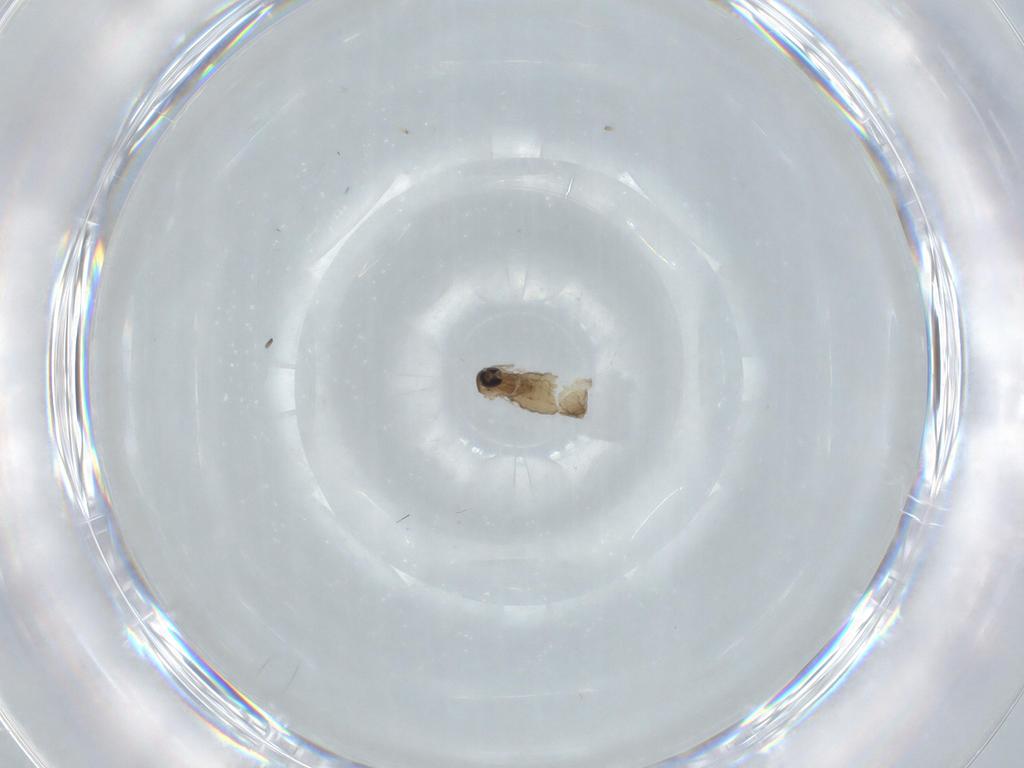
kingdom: Animalia
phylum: Arthropoda
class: Insecta
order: Diptera
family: Cecidomyiidae
